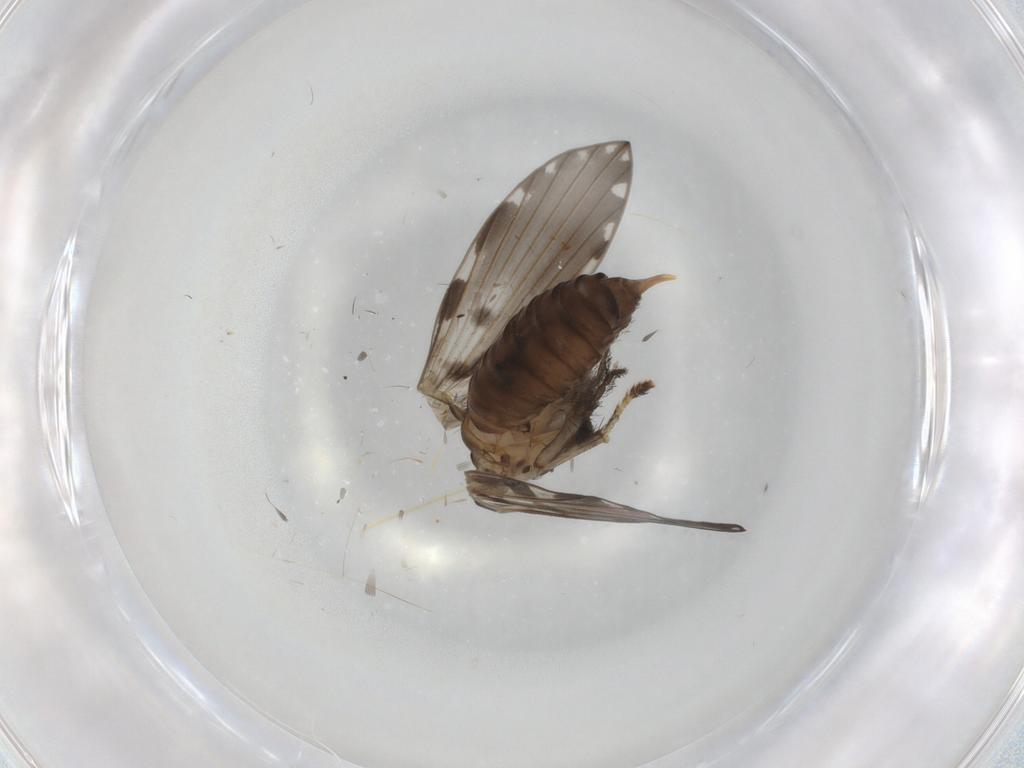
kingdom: Animalia
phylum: Arthropoda
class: Insecta
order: Diptera
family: Psychodidae
